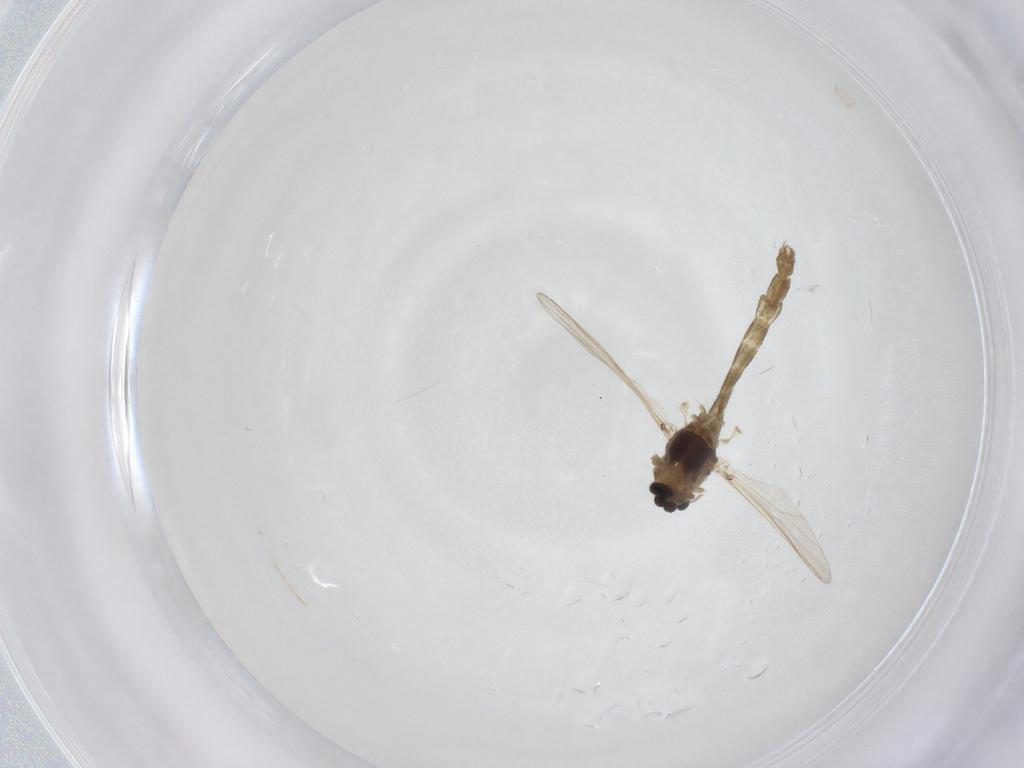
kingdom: Animalia
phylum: Arthropoda
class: Insecta
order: Diptera
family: Chironomidae
